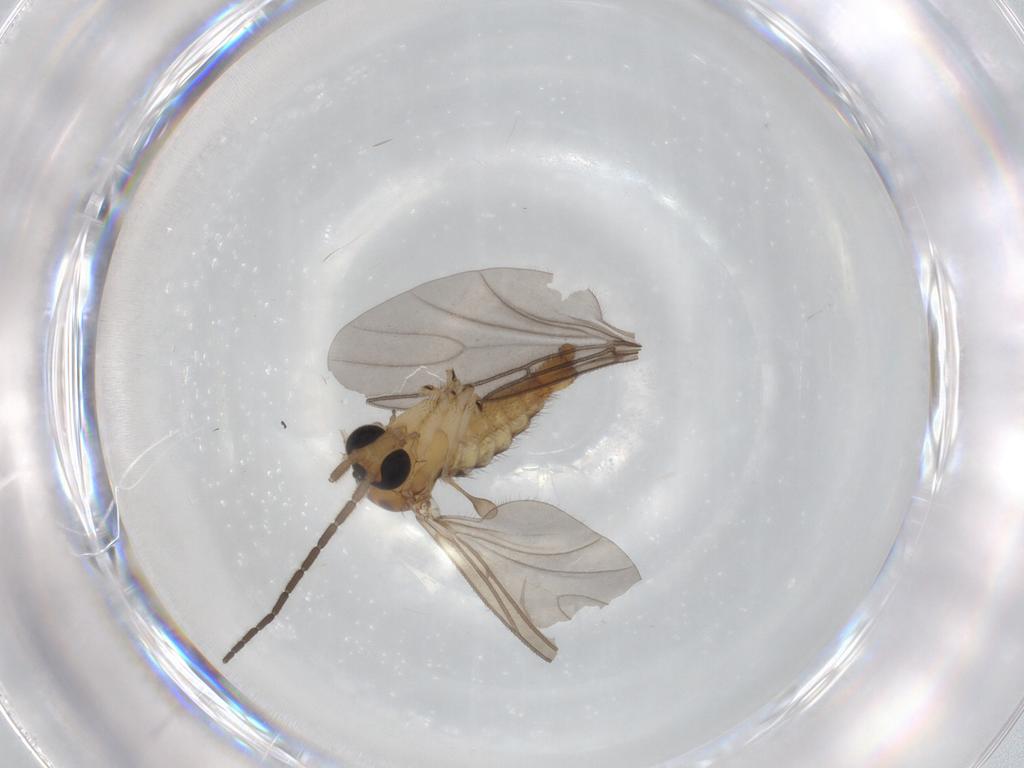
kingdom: Animalia
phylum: Arthropoda
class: Insecta
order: Diptera
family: Sciaridae
